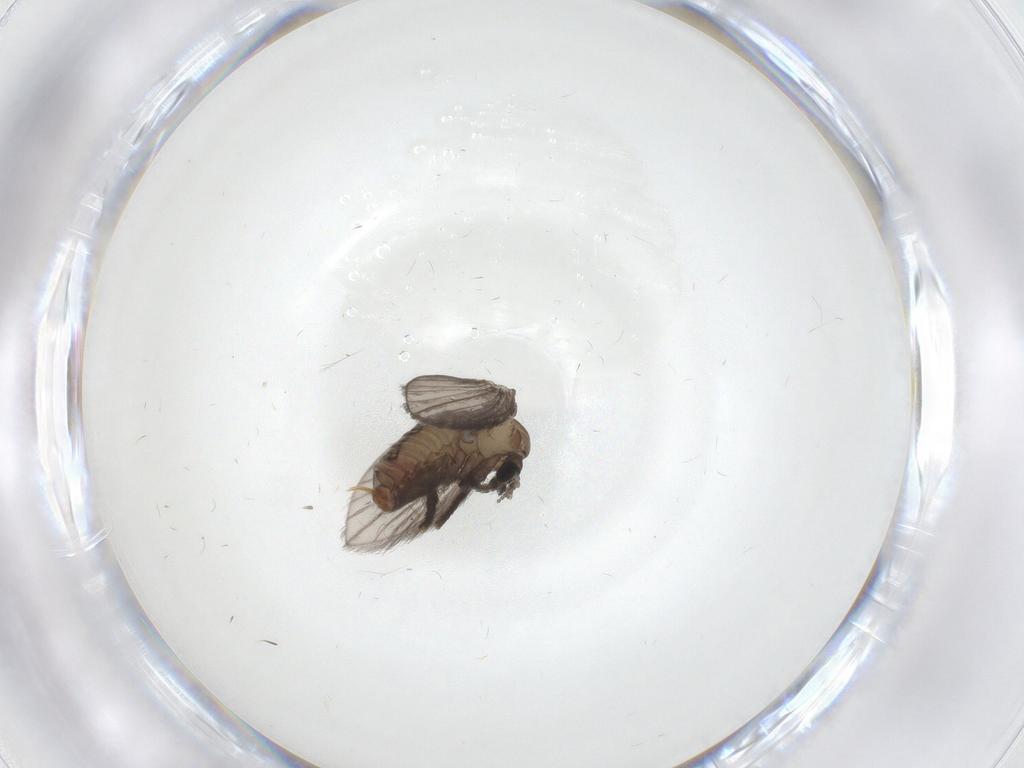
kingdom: Animalia
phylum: Arthropoda
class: Insecta
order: Diptera
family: Psychodidae
